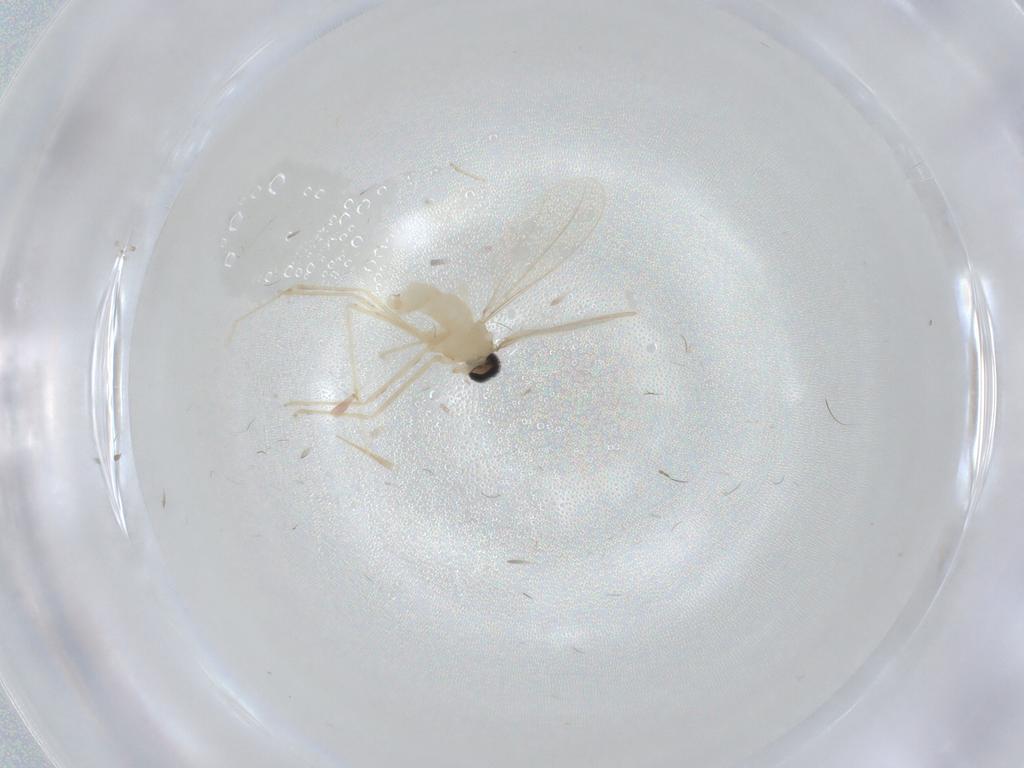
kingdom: Animalia
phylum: Arthropoda
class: Insecta
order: Diptera
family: Cecidomyiidae
